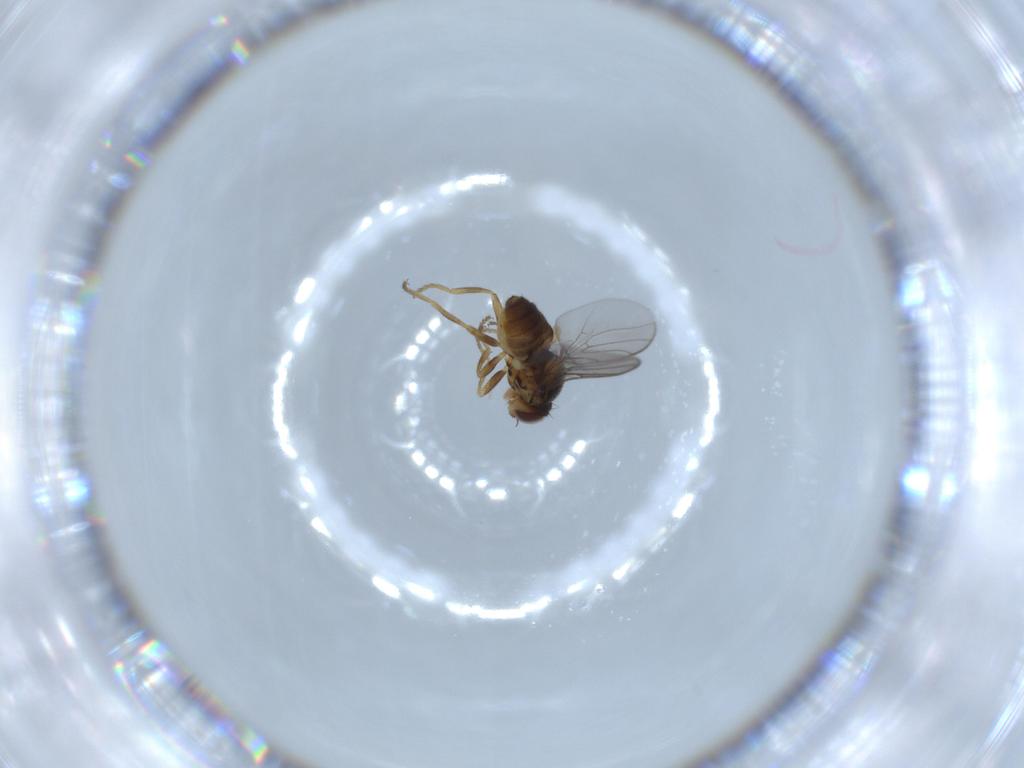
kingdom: Animalia
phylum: Arthropoda
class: Insecta
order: Diptera
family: Chloropidae
